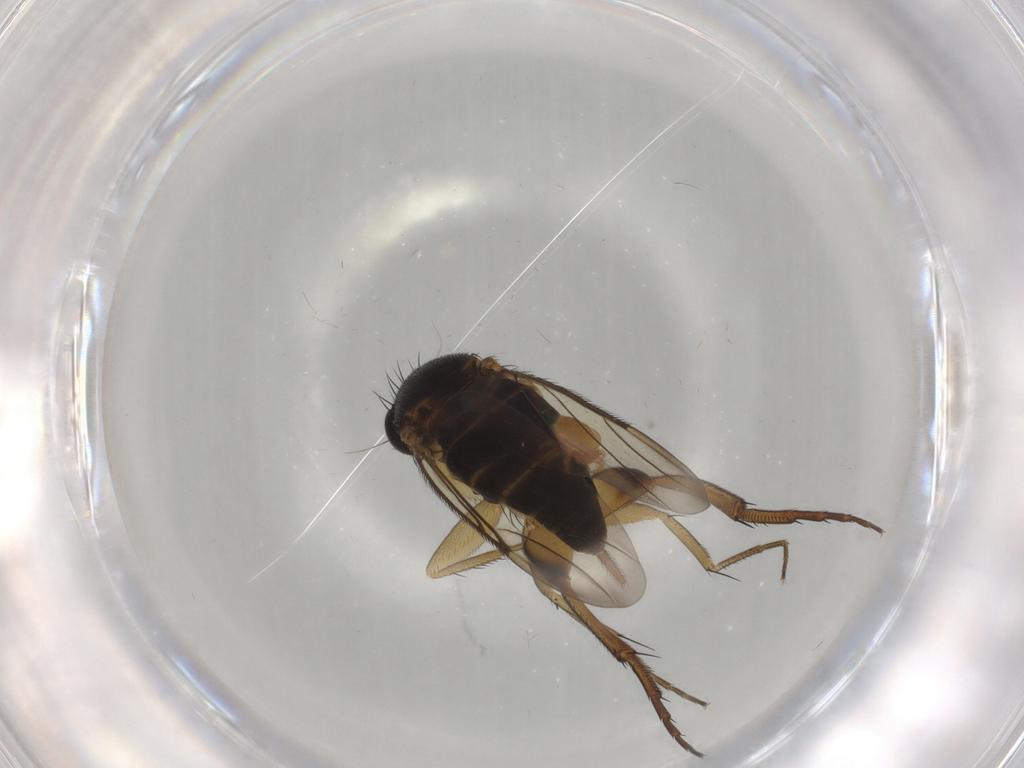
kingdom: Animalia
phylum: Arthropoda
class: Insecta
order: Diptera
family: Phoridae
